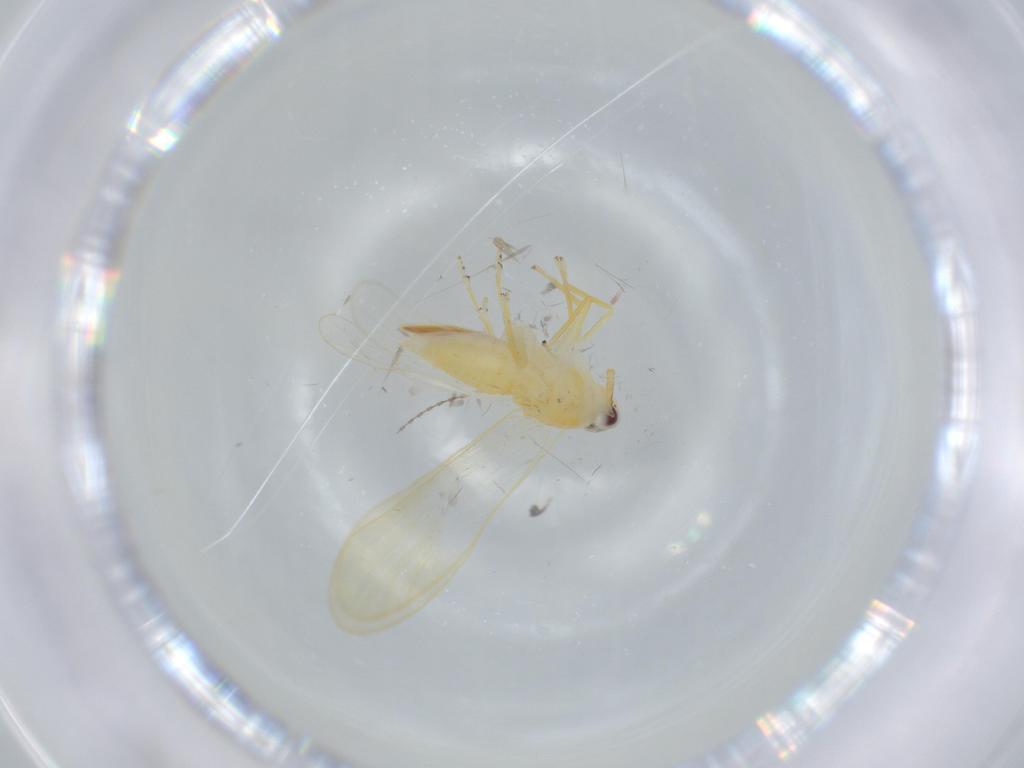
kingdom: Animalia
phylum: Arthropoda
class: Insecta
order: Hemiptera
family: Delphacidae
